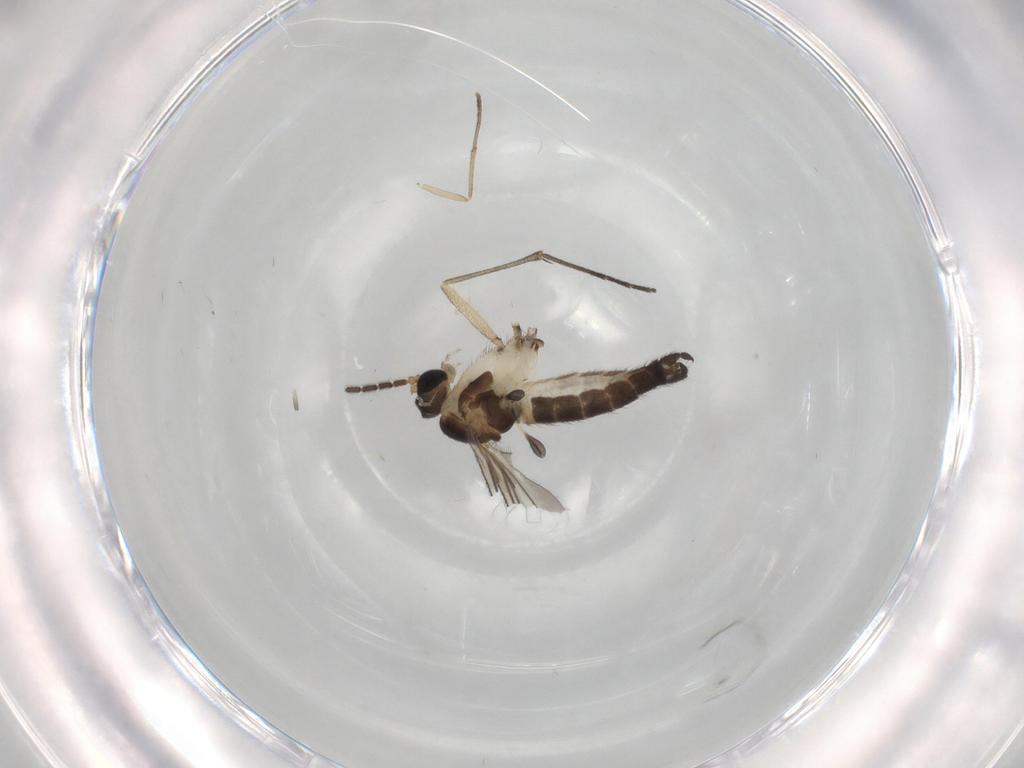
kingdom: Animalia
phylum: Arthropoda
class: Insecta
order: Diptera
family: Sciaridae
